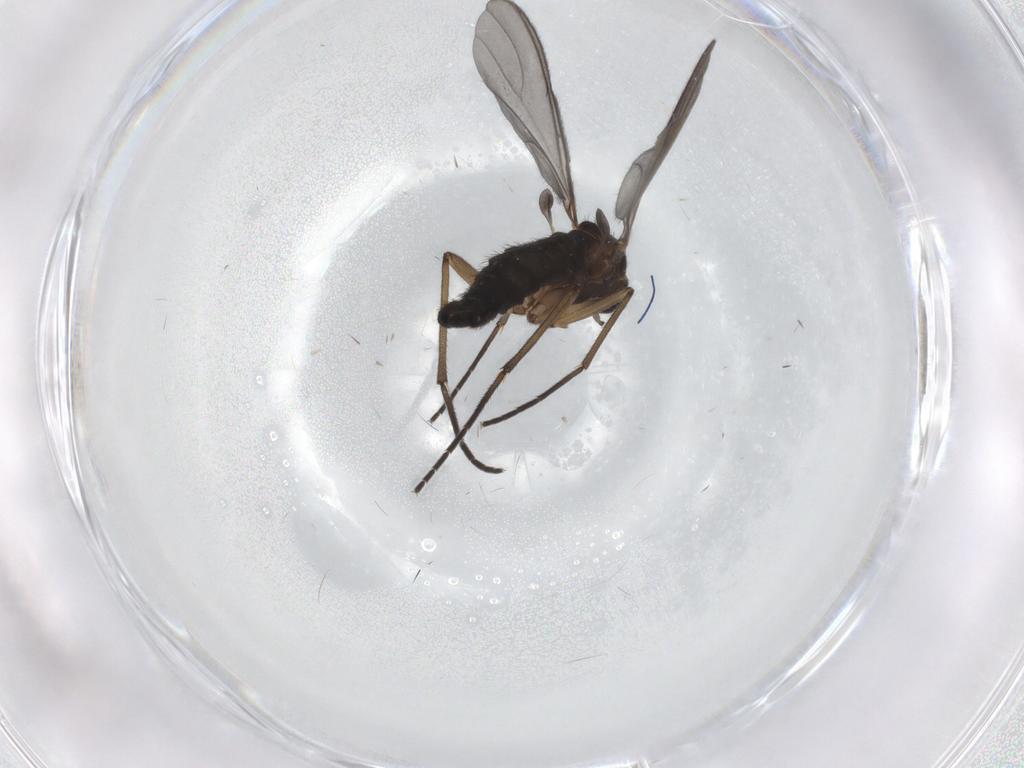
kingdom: Animalia
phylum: Arthropoda
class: Insecta
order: Diptera
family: Sciaridae
